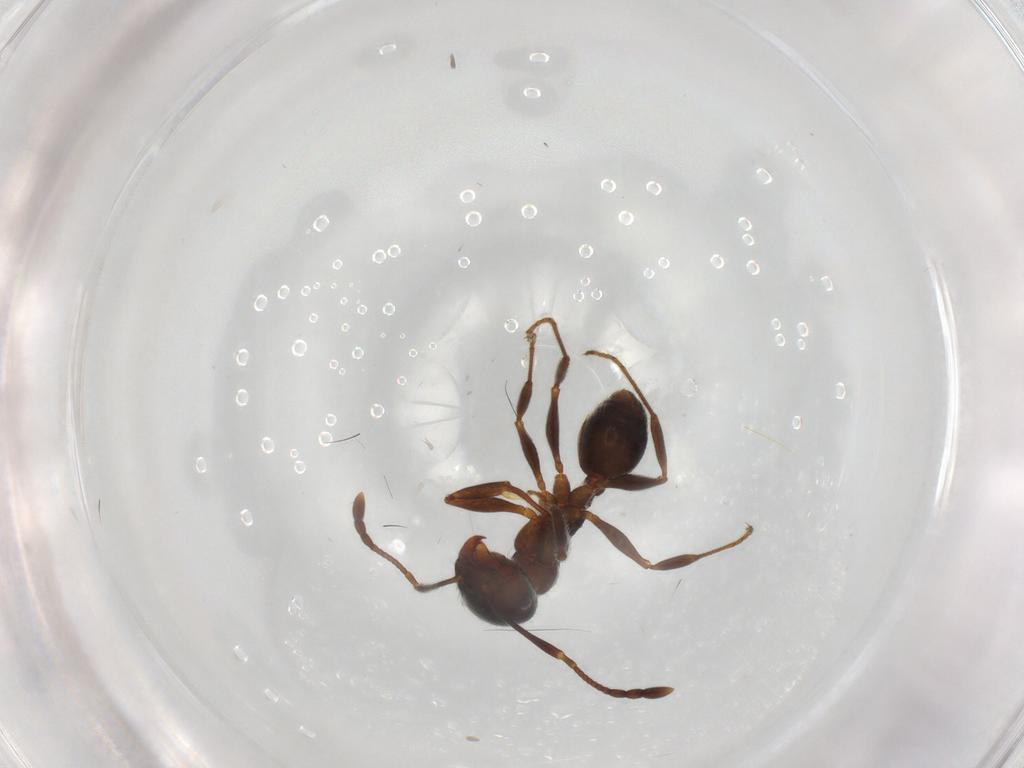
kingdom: Animalia
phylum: Arthropoda
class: Insecta
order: Hymenoptera
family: Formicidae
